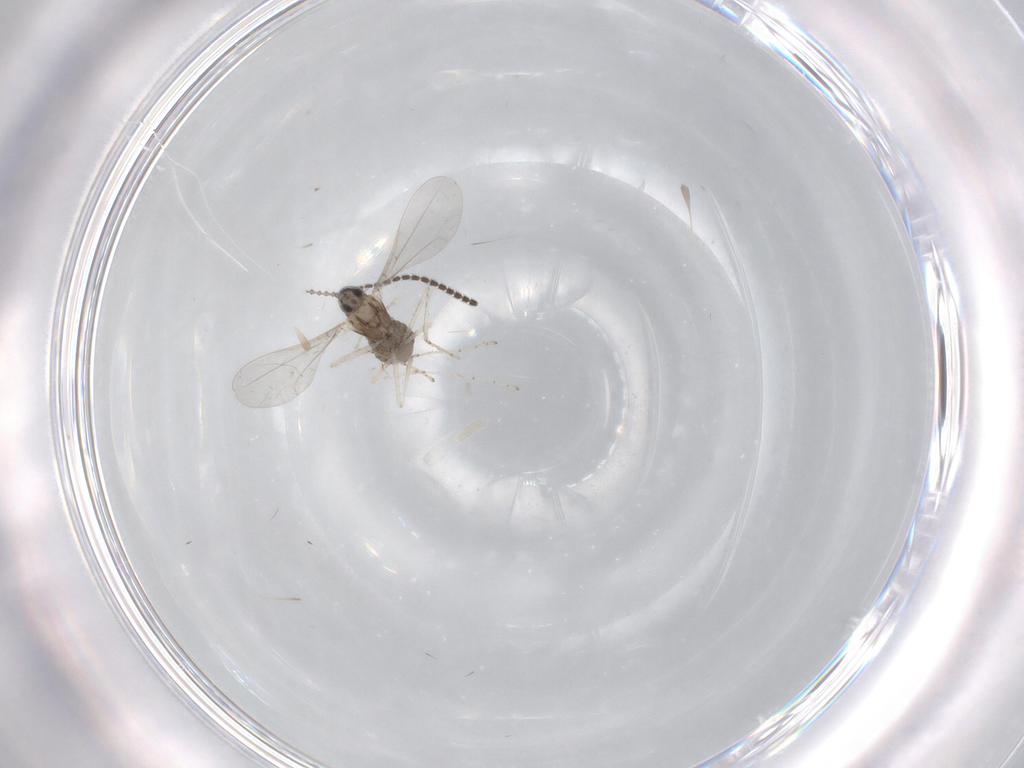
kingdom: Animalia
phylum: Arthropoda
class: Insecta
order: Diptera
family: Cecidomyiidae
